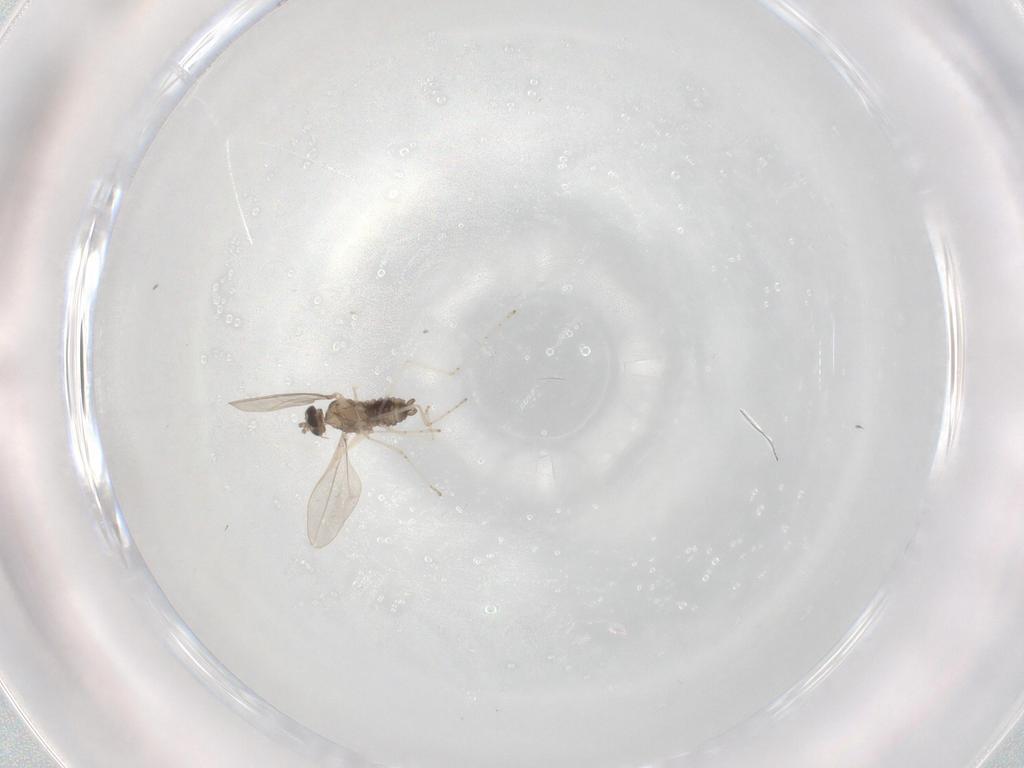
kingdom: Animalia
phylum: Arthropoda
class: Insecta
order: Diptera
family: Cecidomyiidae
